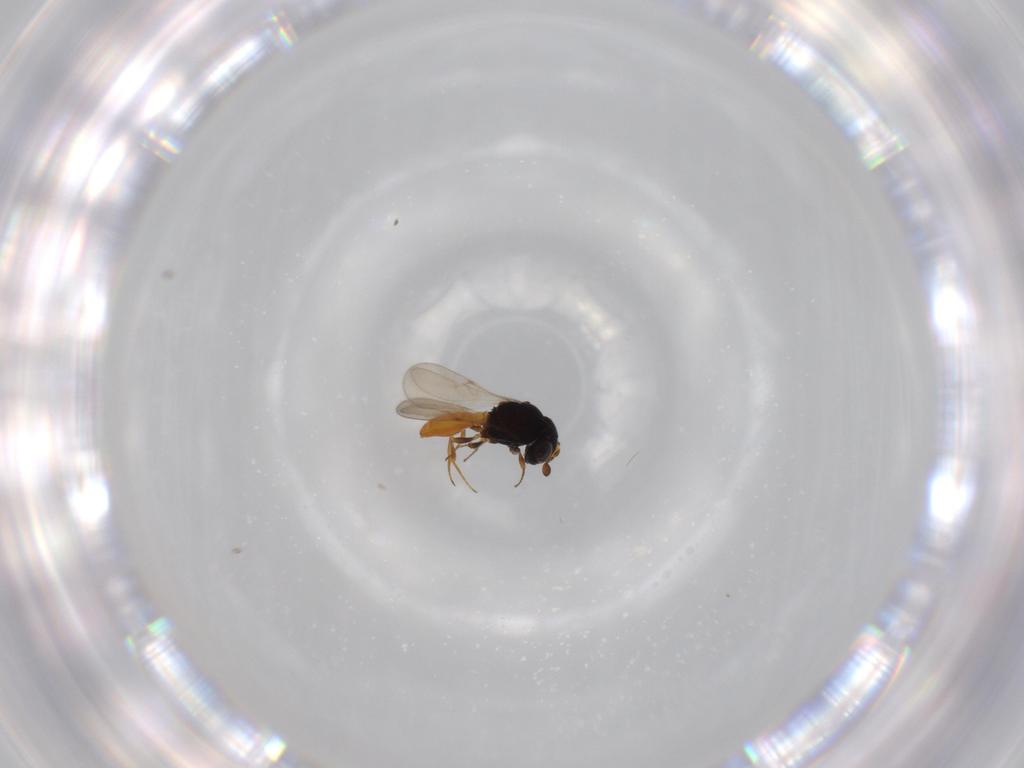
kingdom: Animalia
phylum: Arthropoda
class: Insecta
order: Hymenoptera
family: Scelionidae
